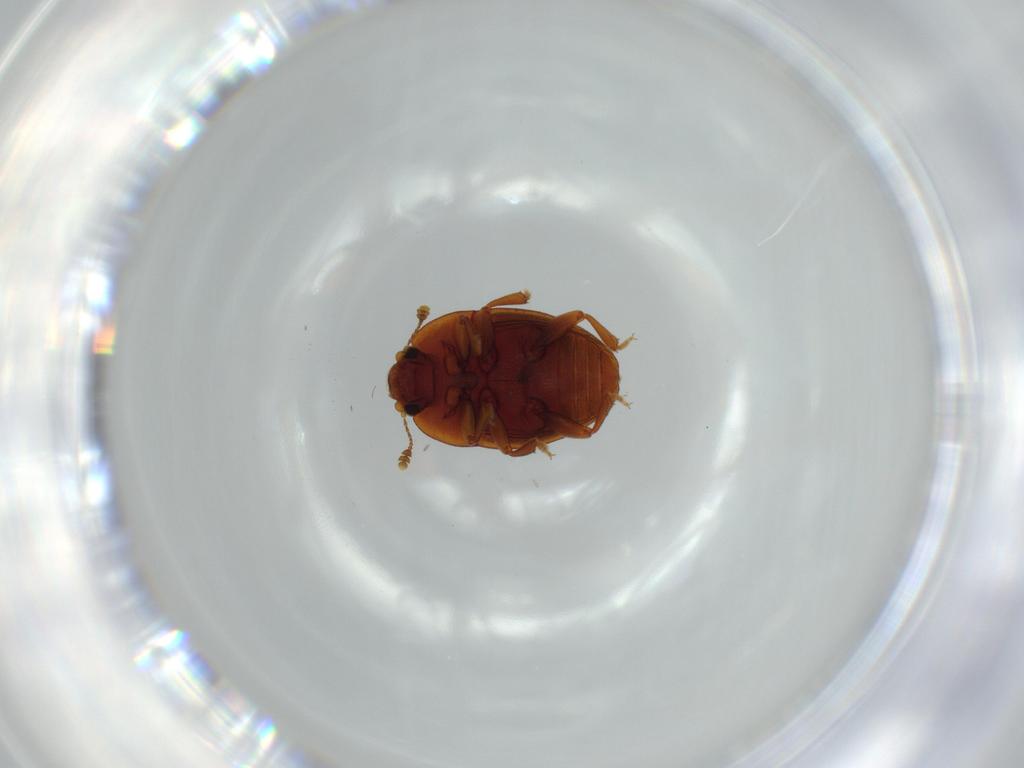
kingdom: Animalia
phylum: Arthropoda
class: Insecta
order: Coleoptera
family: Nitidulidae
